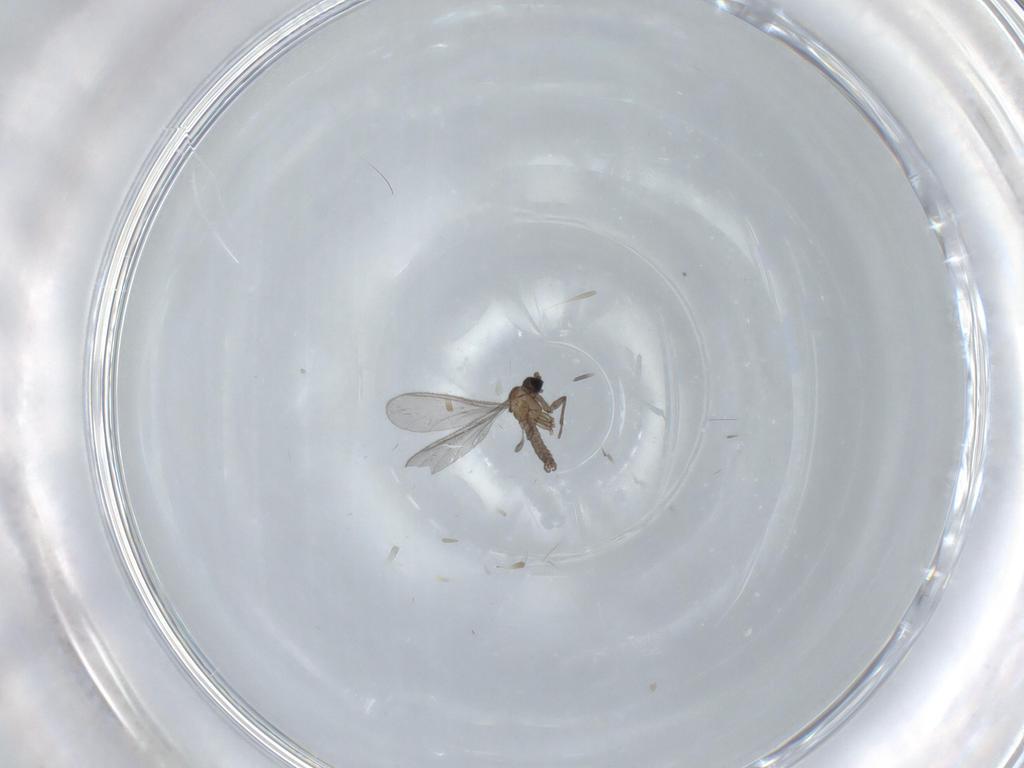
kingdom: Animalia
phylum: Arthropoda
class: Insecta
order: Diptera
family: Sciaridae
